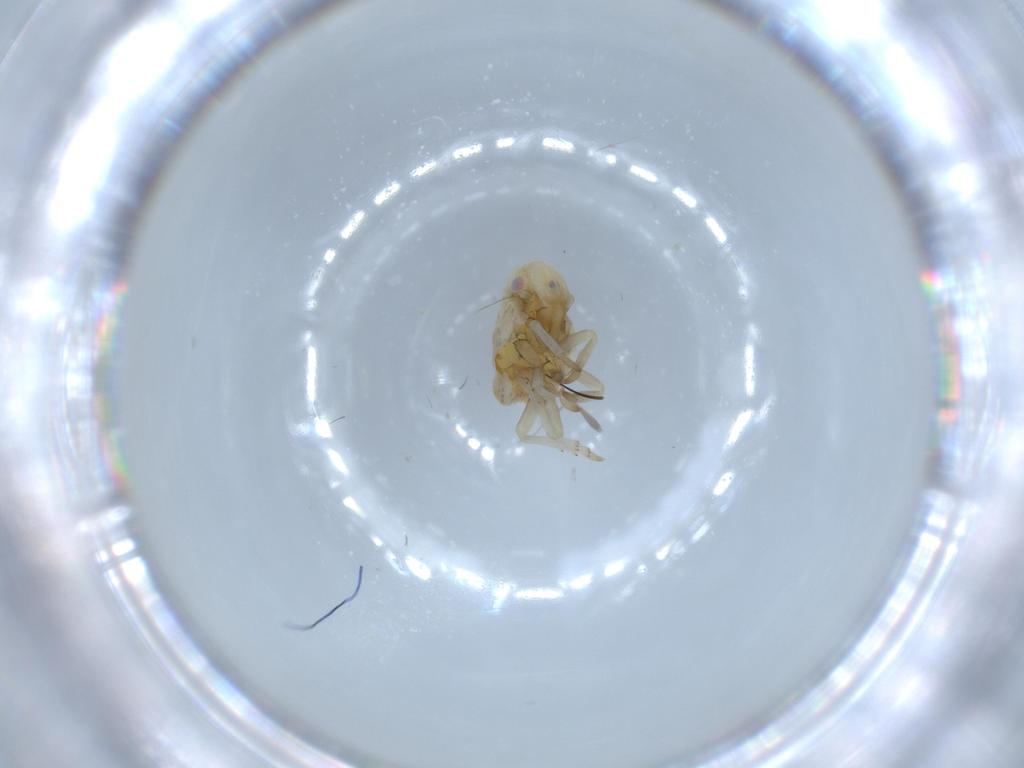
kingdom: Animalia
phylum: Arthropoda
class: Insecta
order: Hemiptera
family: Flatidae
